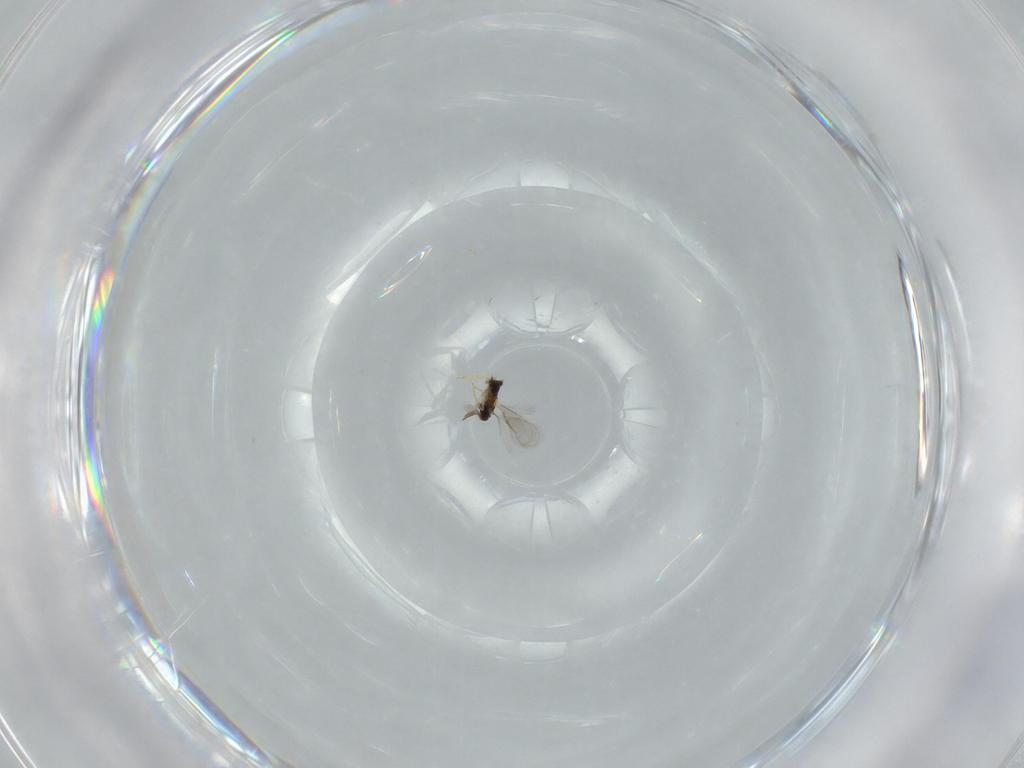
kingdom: Animalia
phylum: Arthropoda
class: Insecta
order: Hymenoptera
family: Aphelinidae
